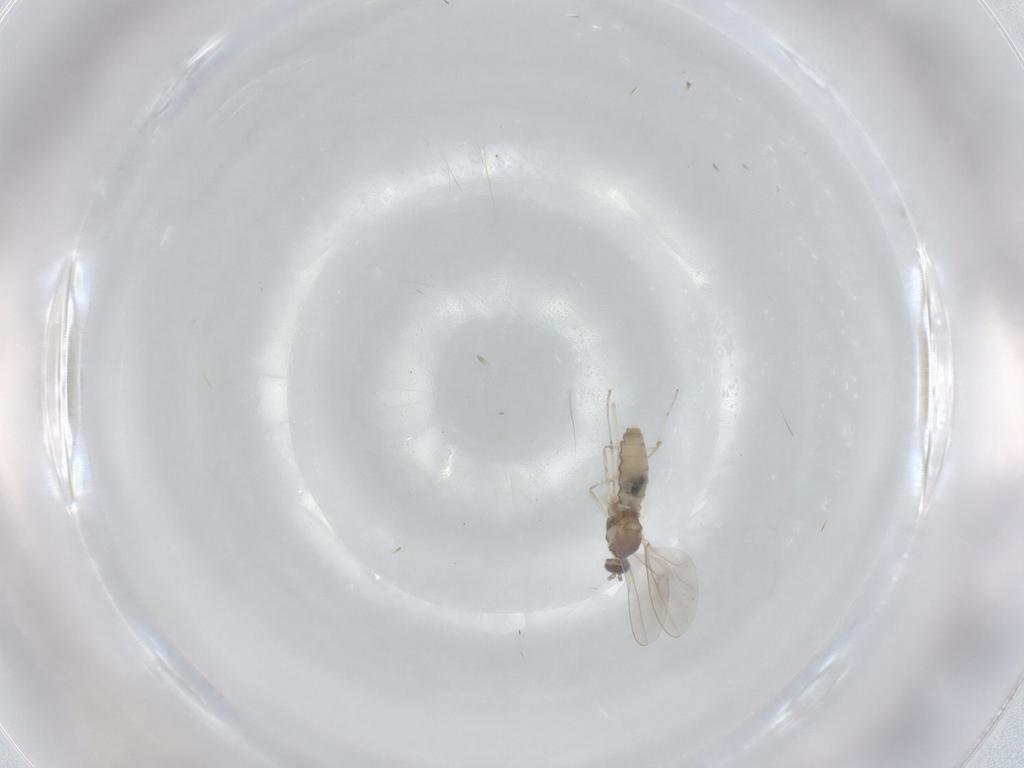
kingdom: Animalia
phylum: Arthropoda
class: Insecta
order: Diptera
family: Cecidomyiidae
